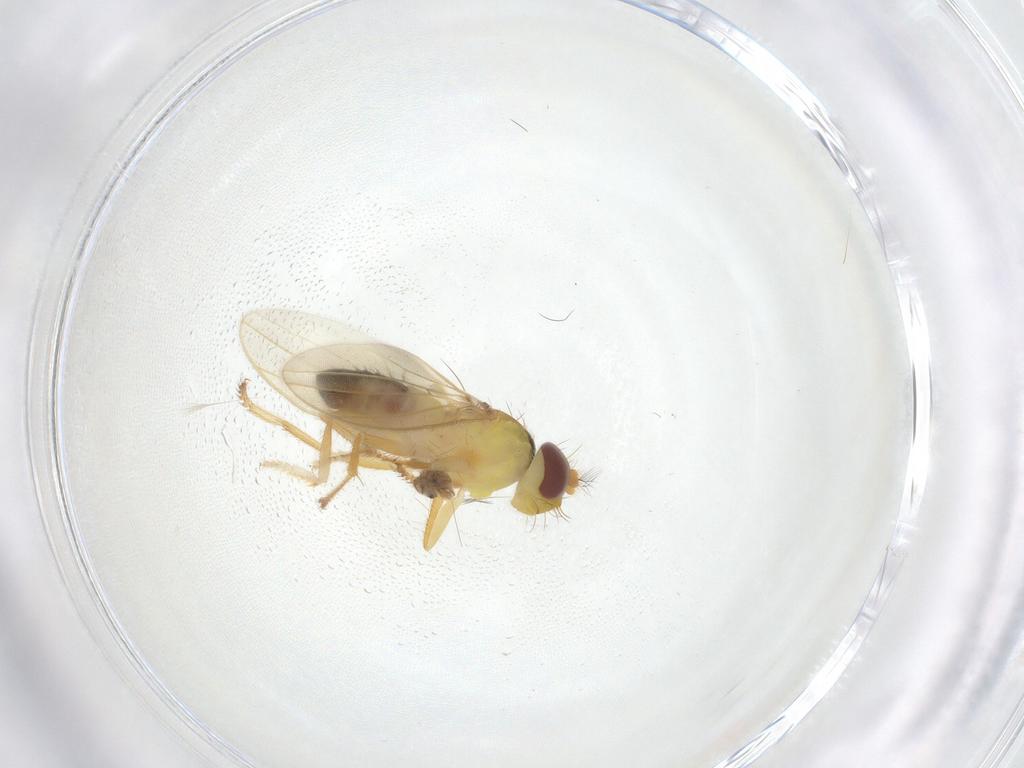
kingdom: Animalia
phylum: Arthropoda
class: Insecta
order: Diptera
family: Periscelididae
